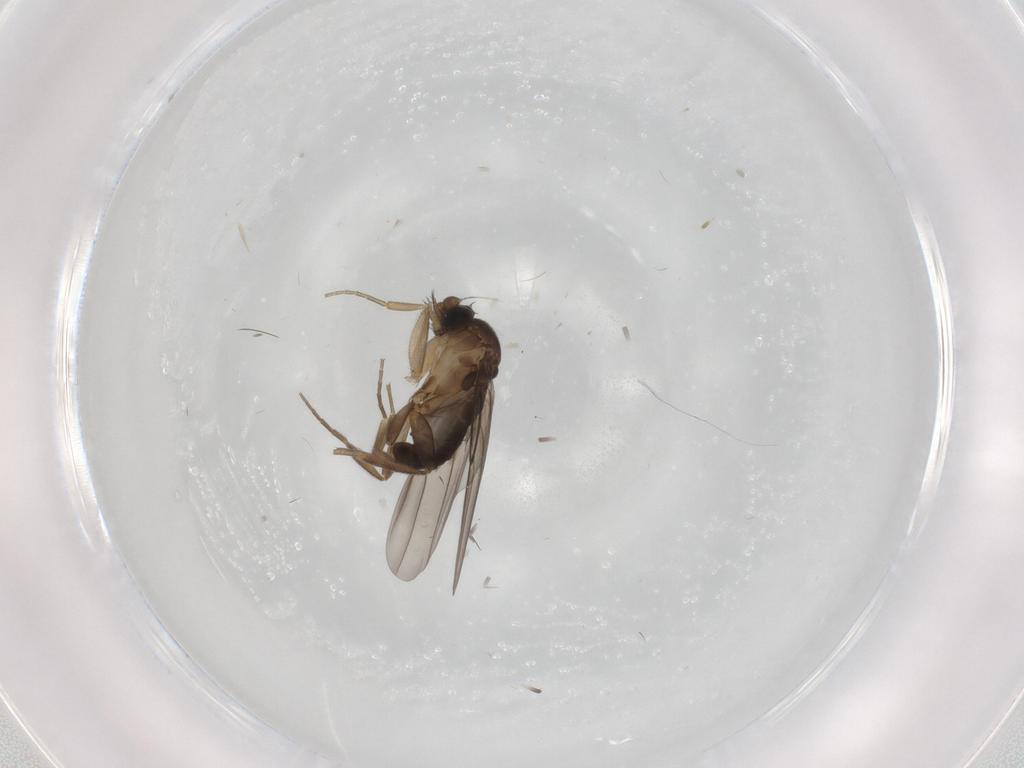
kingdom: Animalia
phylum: Arthropoda
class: Insecta
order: Diptera
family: Phoridae
